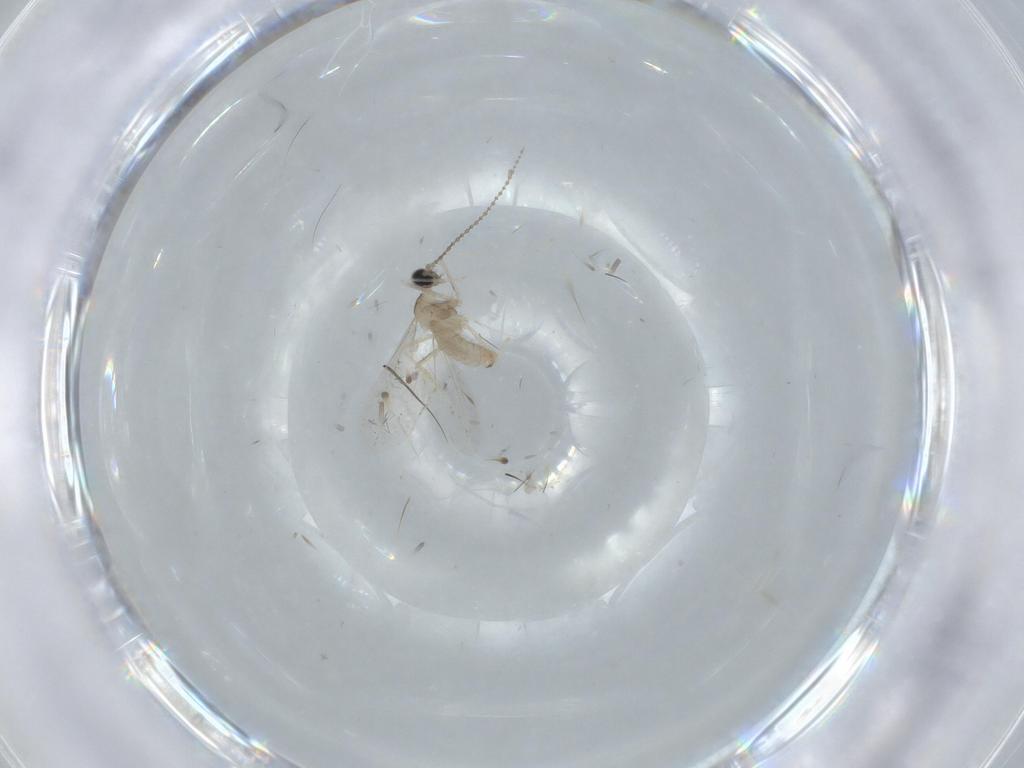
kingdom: Animalia
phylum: Arthropoda
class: Insecta
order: Diptera
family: Cecidomyiidae
